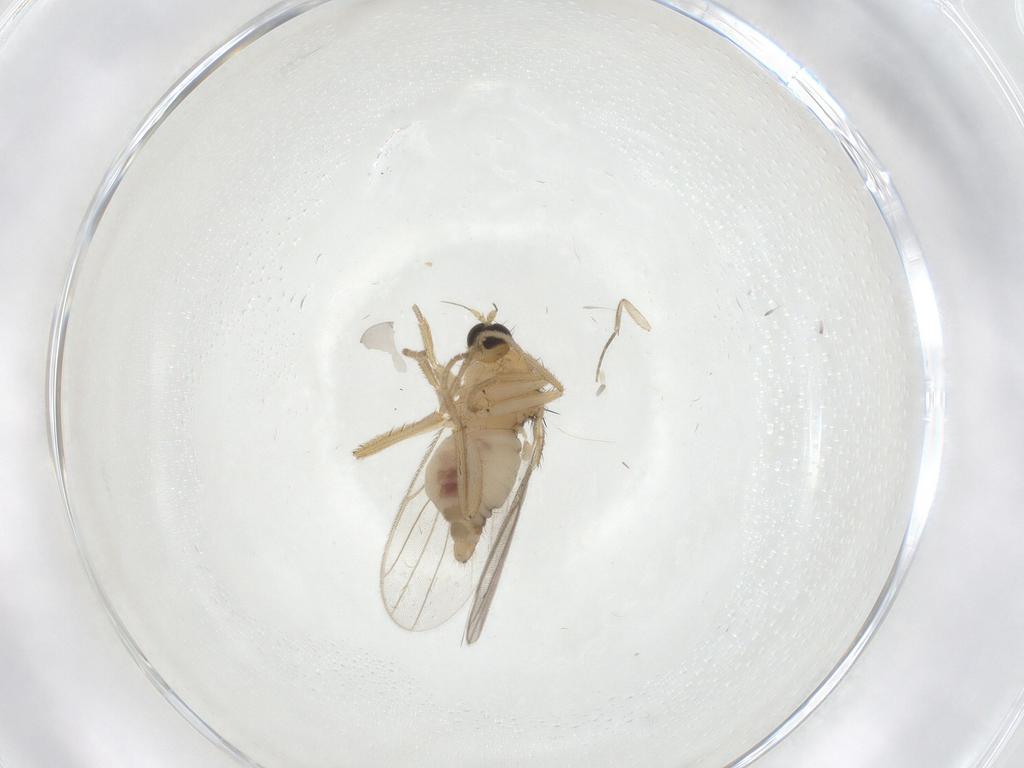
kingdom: Animalia
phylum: Arthropoda
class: Insecta
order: Diptera
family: Hybotidae
